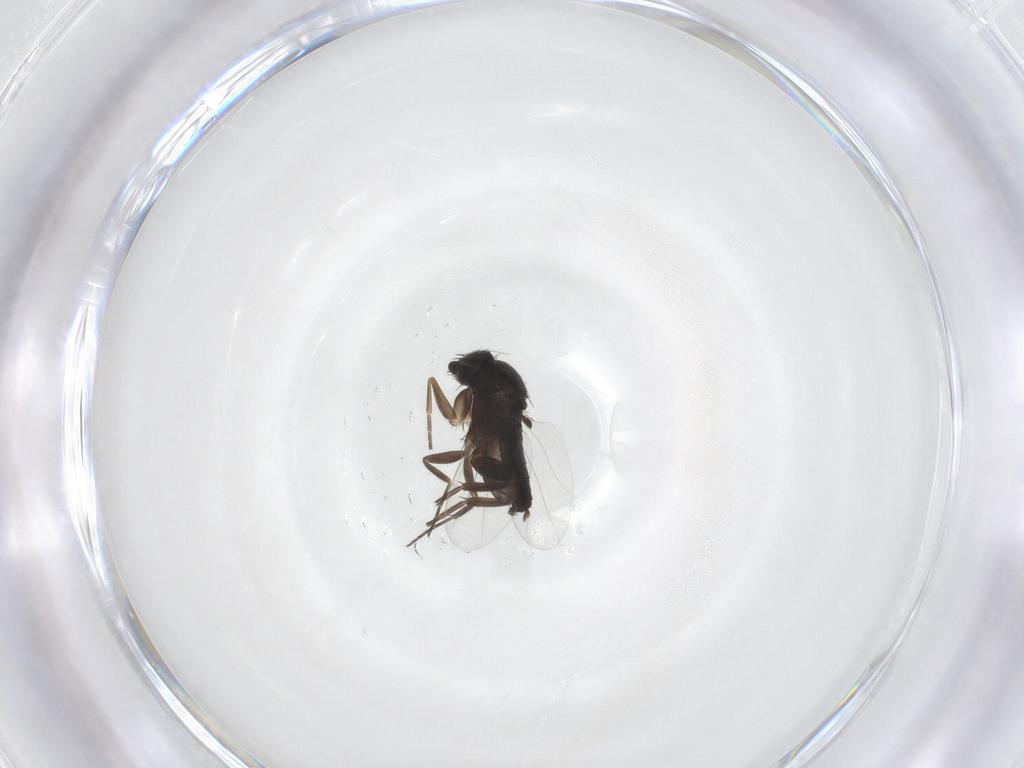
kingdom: Animalia
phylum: Arthropoda
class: Insecta
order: Diptera
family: Phoridae
